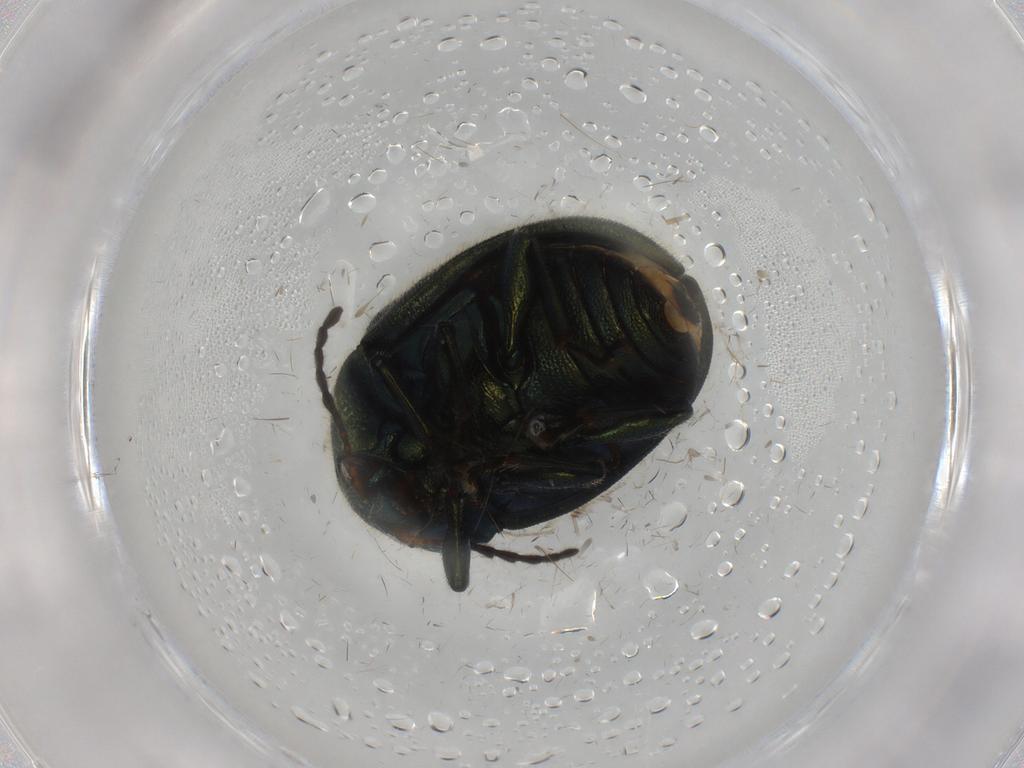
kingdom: Animalia
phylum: Arthropoda
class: Insecta
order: Coleoptera
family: Chrysomelidae
